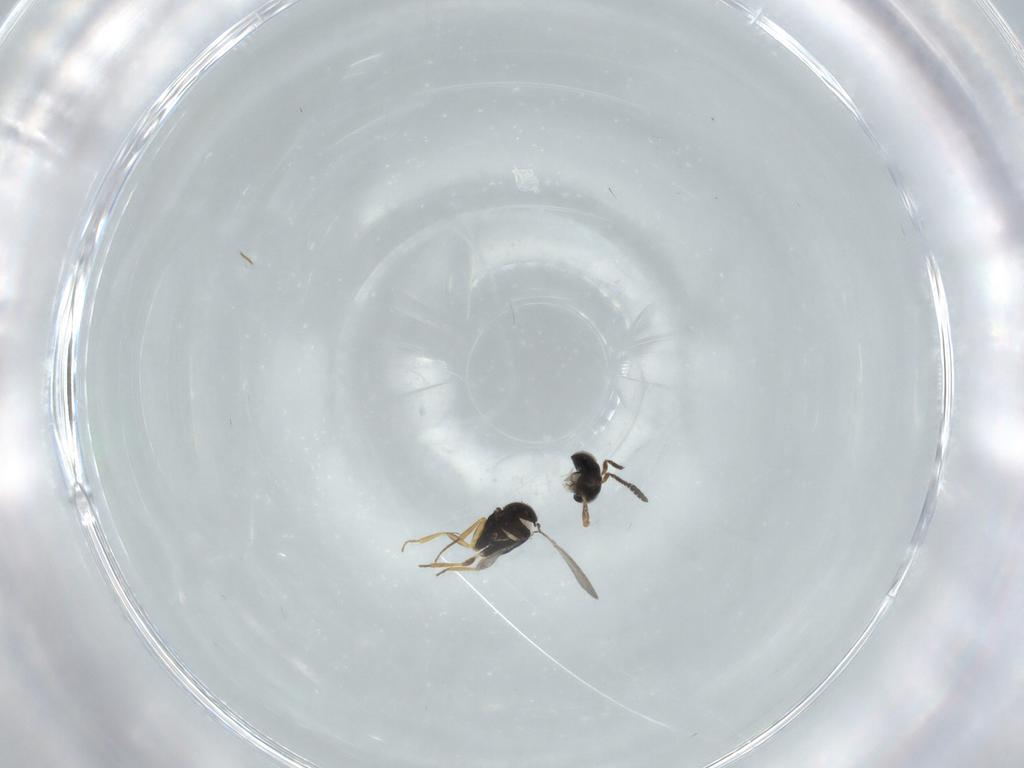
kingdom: Animalia
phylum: Arthropoda
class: Insecta
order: Hymenoptera
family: Scelionidae
